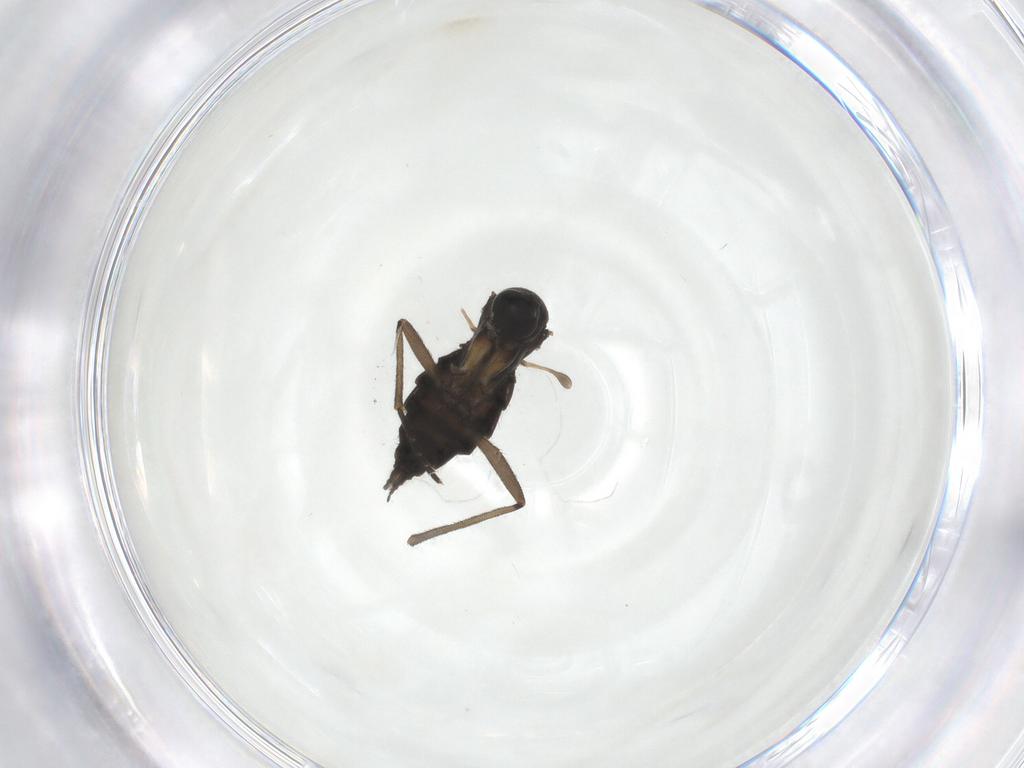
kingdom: Animalia
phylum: Arthropoda
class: Insecta
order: Diptera
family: Sciaridae
